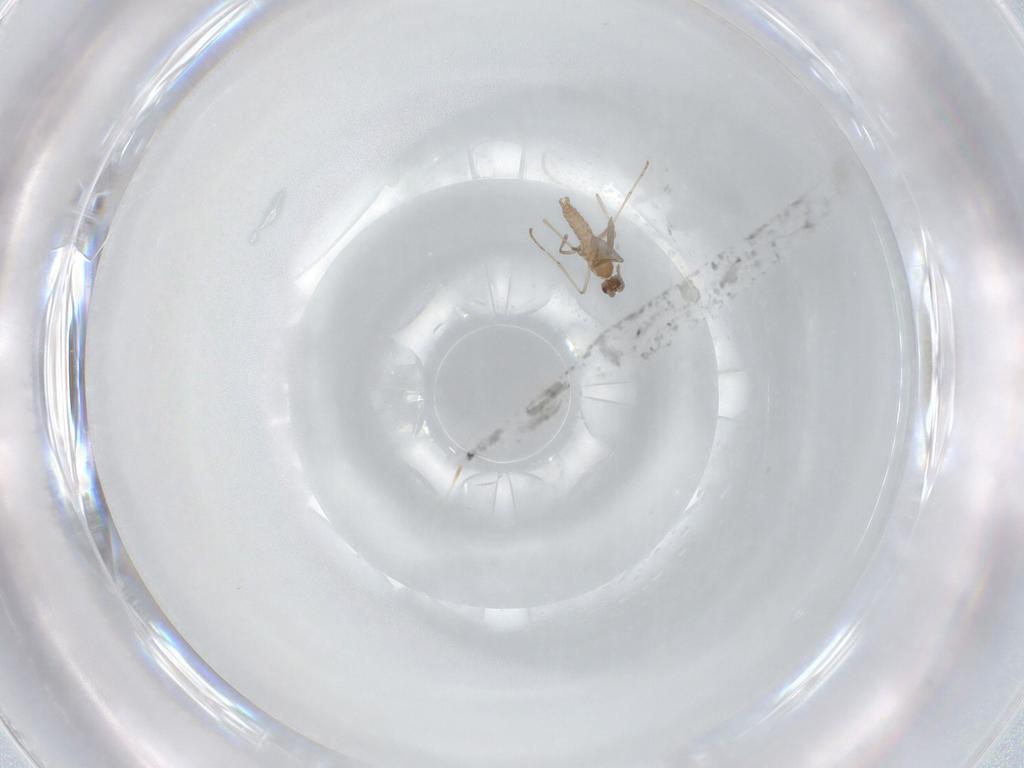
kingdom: Animalia
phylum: Arthropoda
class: Insecta
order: Diptera
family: Cecidomyiidae
